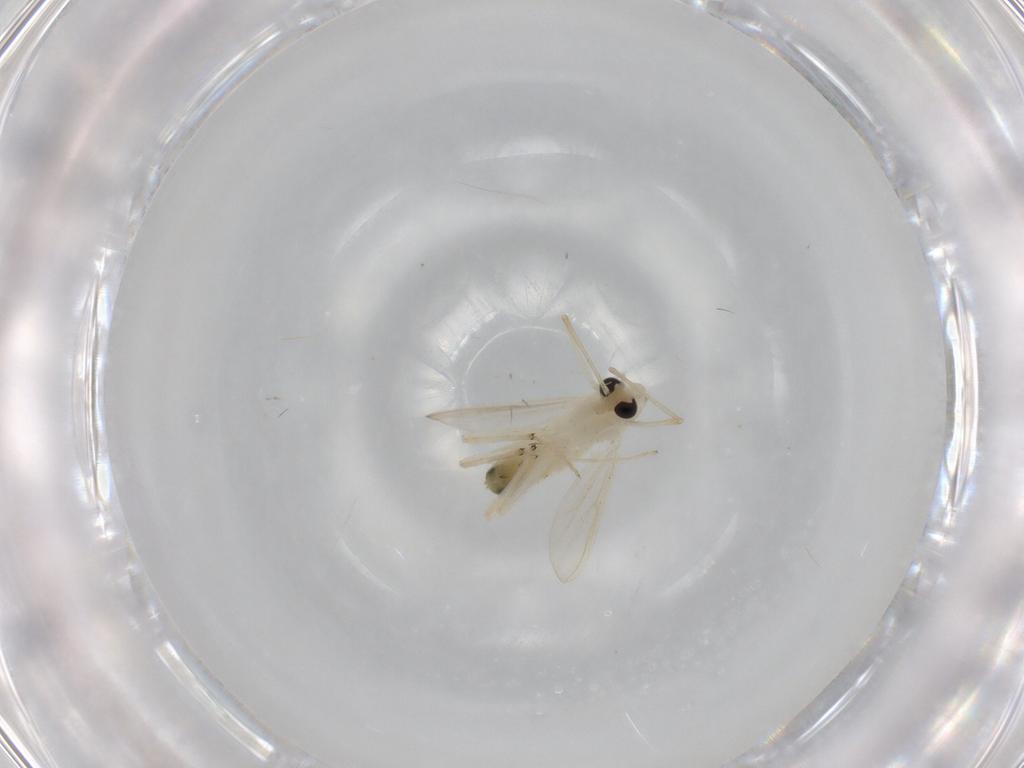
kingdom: Animalia
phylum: Arthropoda
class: Insecta
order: Diptera
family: Chironomidae
